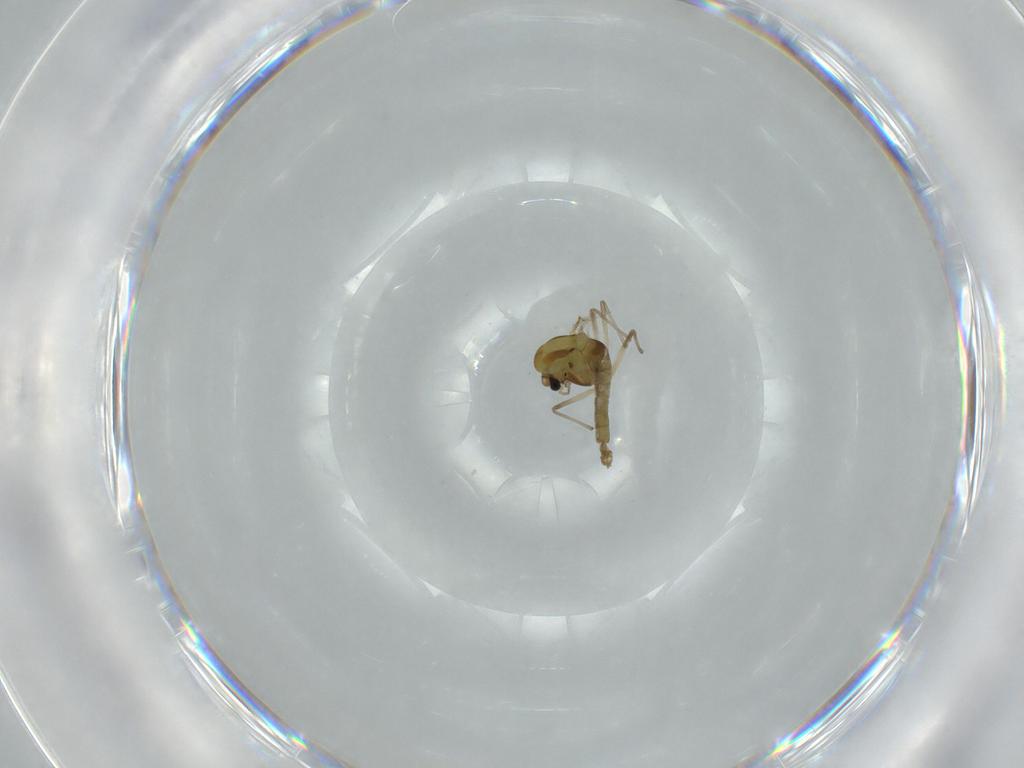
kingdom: Animalia
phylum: Arthropoda
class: Insecta
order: Diptera
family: Chironomidae
